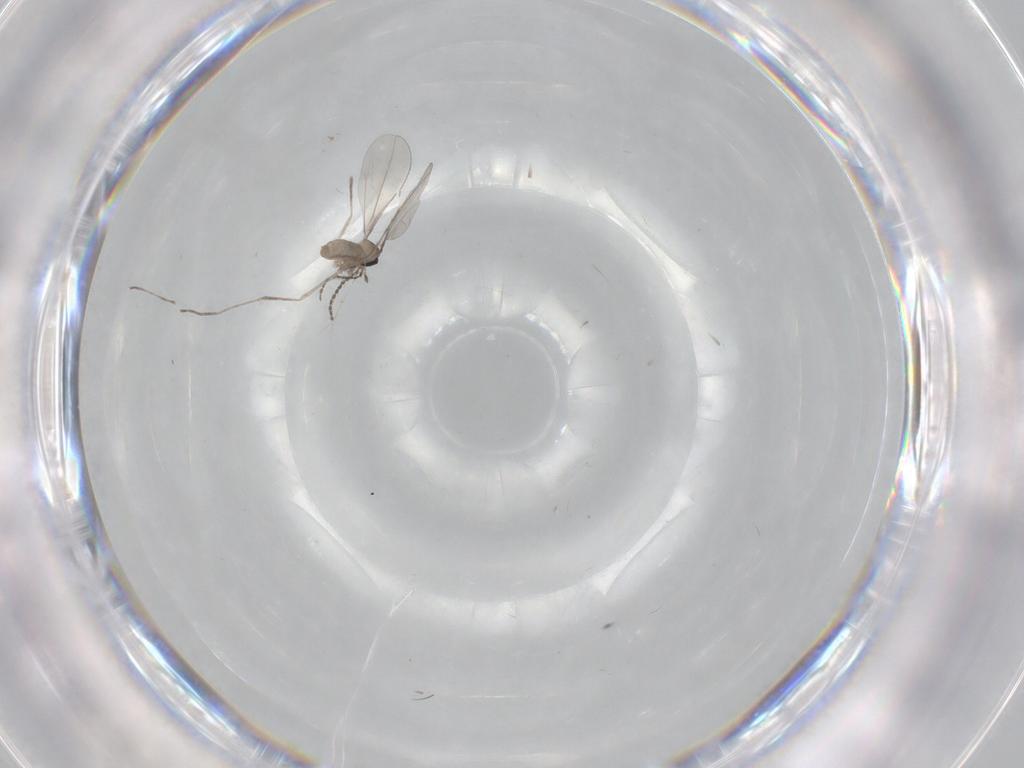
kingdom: Animalia
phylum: Arthropoda
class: Insecta
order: Diptera
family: Cecidomyiidae
